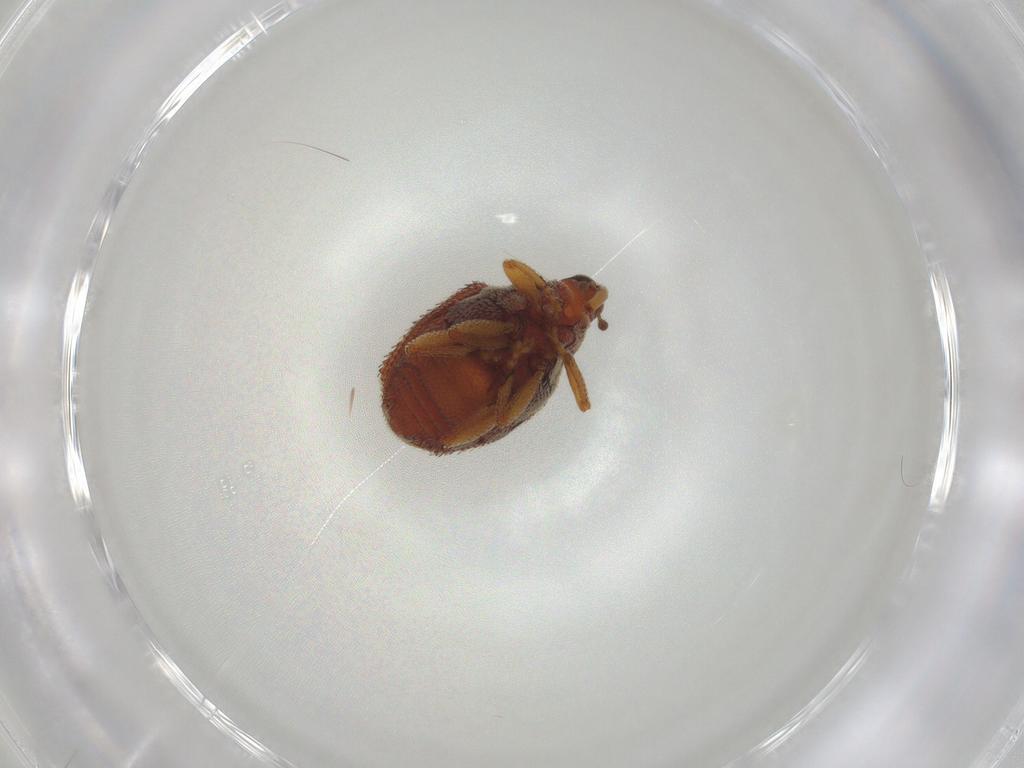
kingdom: Animalia
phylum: Arthropoda
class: Insecta
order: Coleoptera
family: Curculionidae
